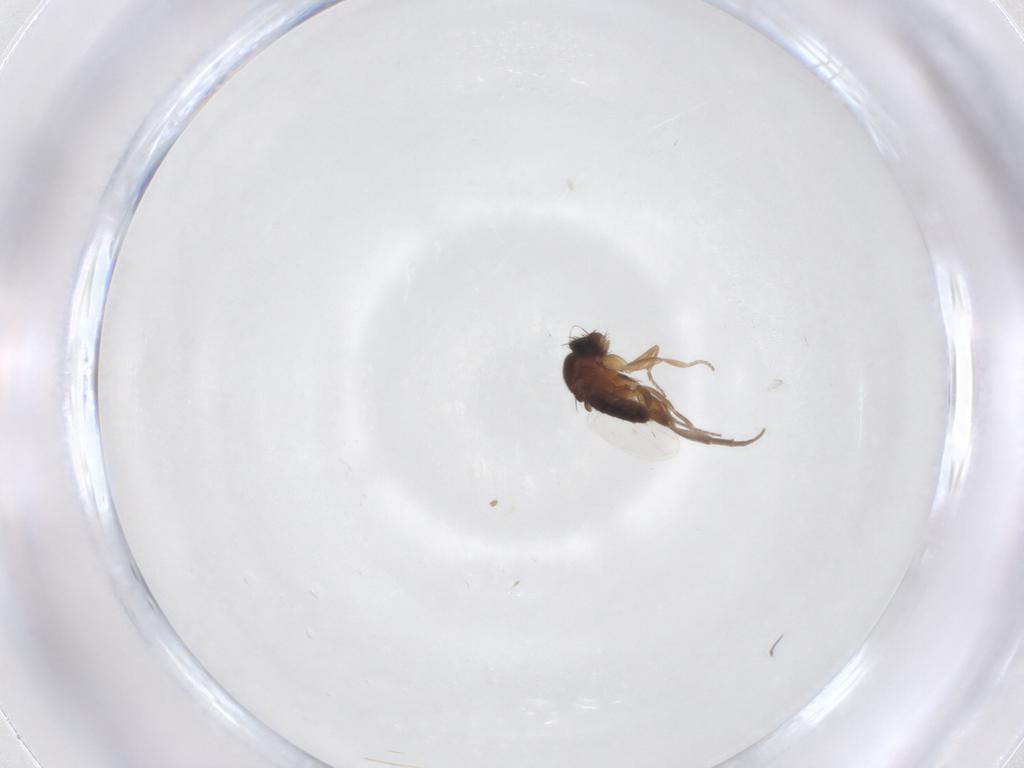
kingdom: Animalia
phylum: Arthropoda
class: Insecta
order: Diptera
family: Phoridae
